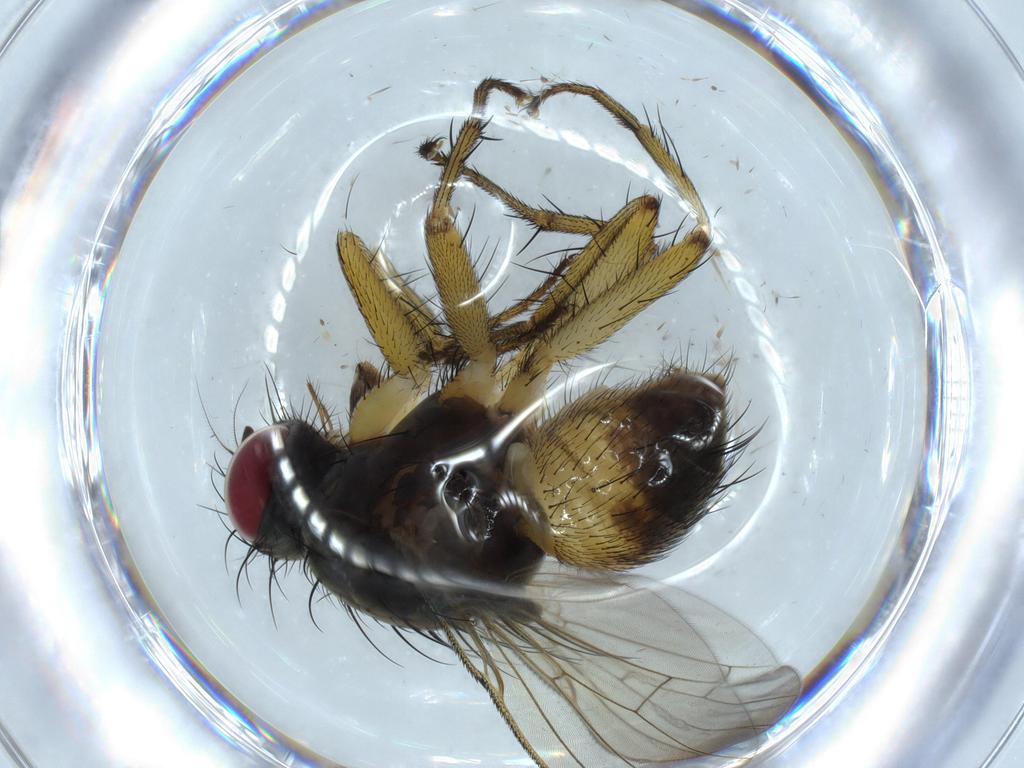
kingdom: Animalia
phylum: Arthropoda
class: Insecta
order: Diptera
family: Muscidae
